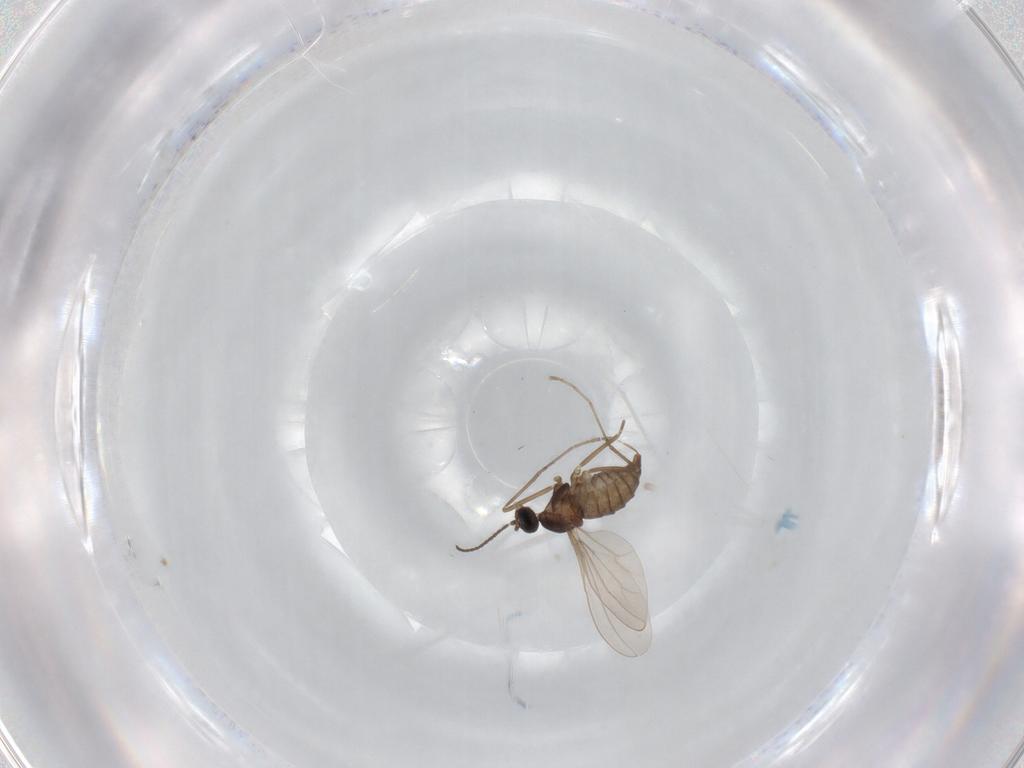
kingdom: Animalia
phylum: Arthropoda
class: Insecta
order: Diptera
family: Cecidomyiidae
